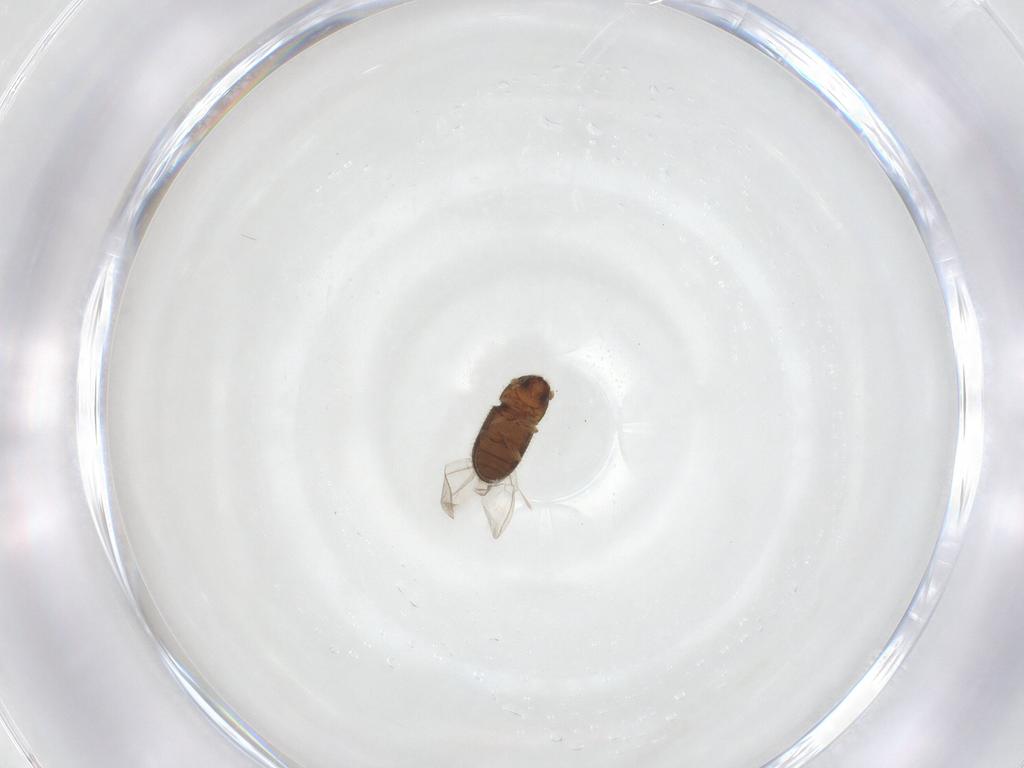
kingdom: Animalia
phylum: Arthropoda
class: Insecta
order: Coleoptera
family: Curculionidae
